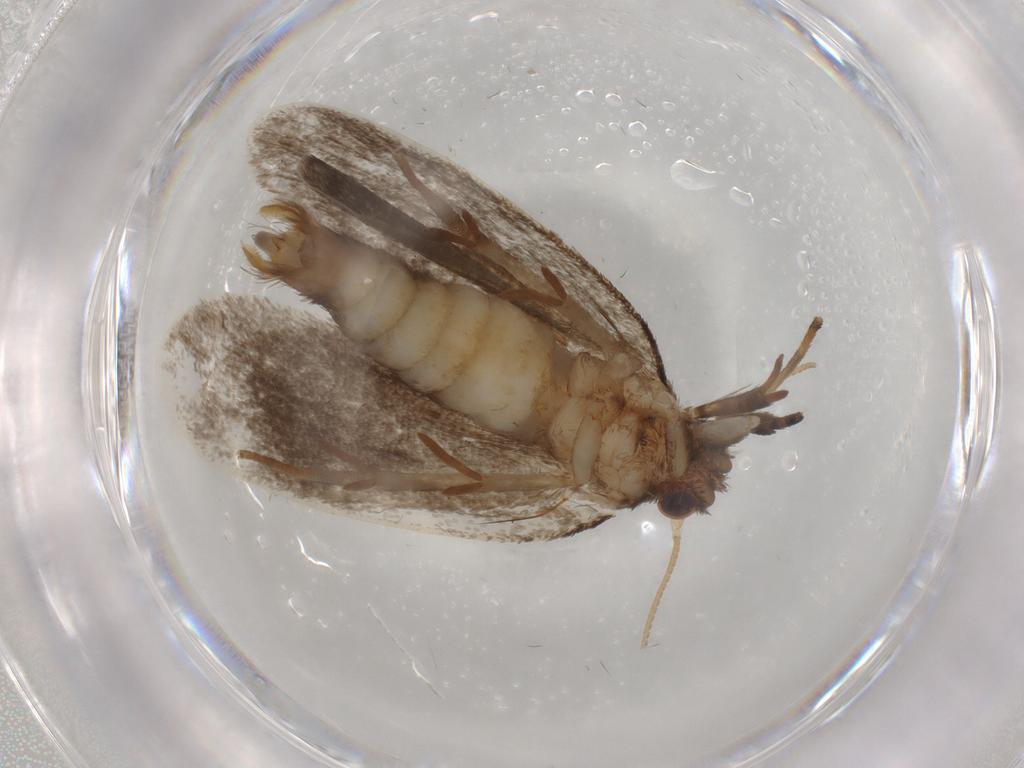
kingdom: Animalia
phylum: Arthropoda
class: Insecta
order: Lepidoptera
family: Tineidae
